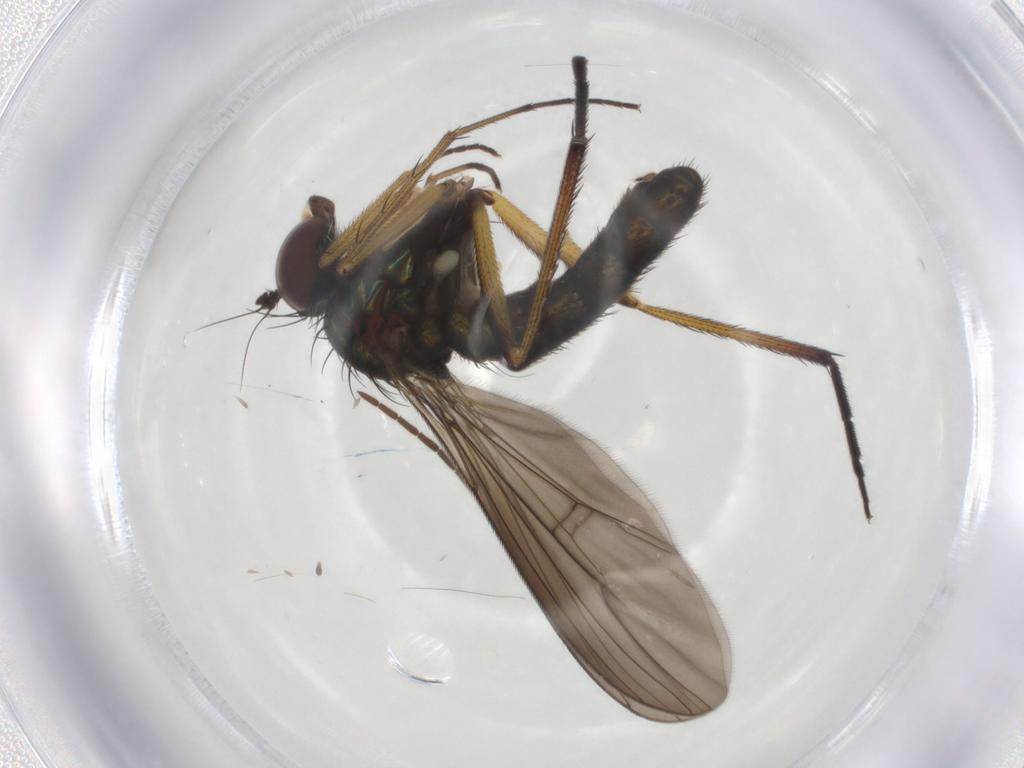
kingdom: Animalia
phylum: Arthropoda
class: Insecta
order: Diptera
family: Dolichopodidae
